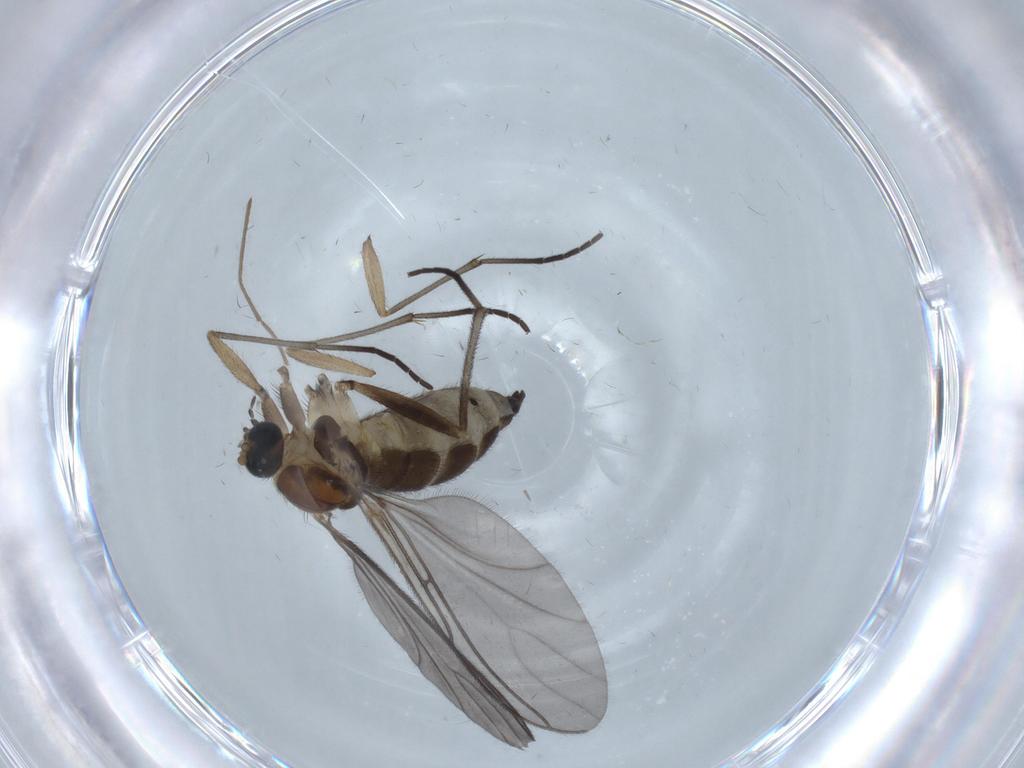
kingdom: Animalia
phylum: Arthropoda
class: Insecta
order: Diptera
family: Sciaridae
